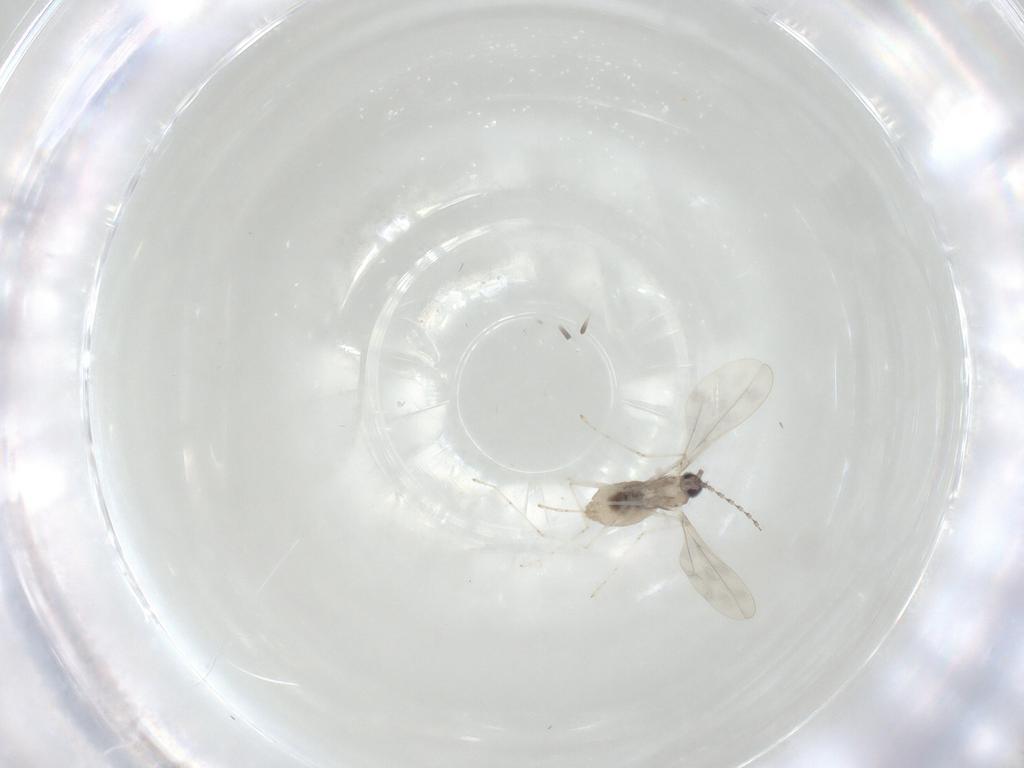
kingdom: Animalia
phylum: Arthropoda
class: Insecta
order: Diptera
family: Cecidomyiidae
